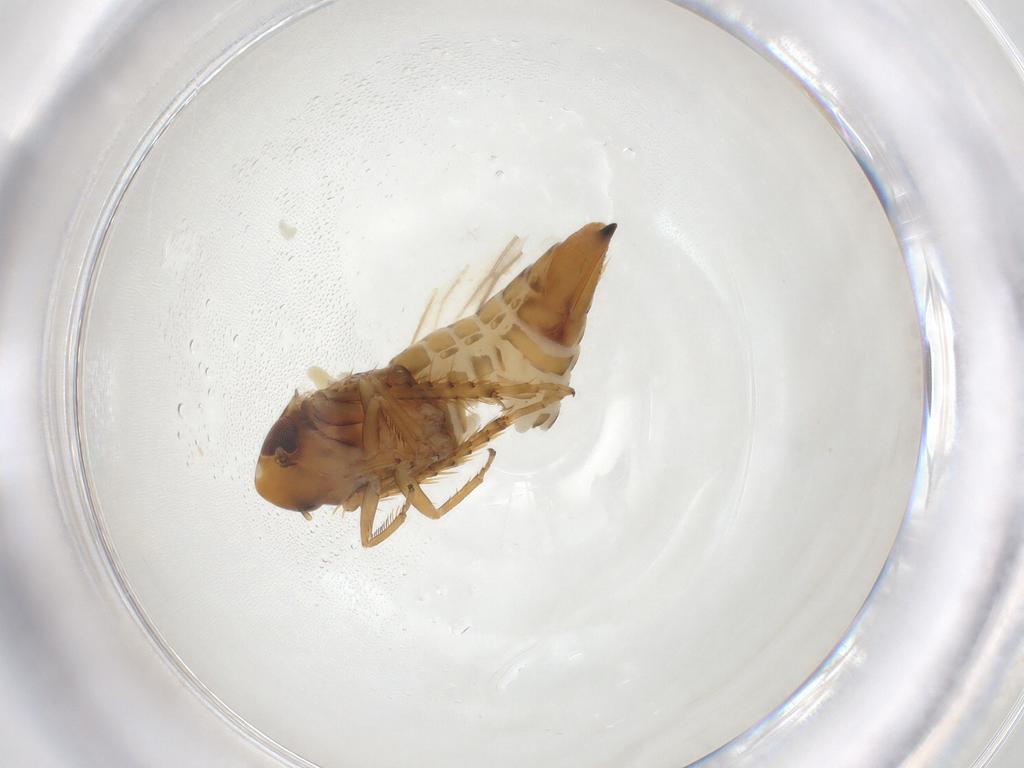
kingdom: Animalia
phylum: Arthropoda
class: Insecta
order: Hemiptera
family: Cicadellidae
